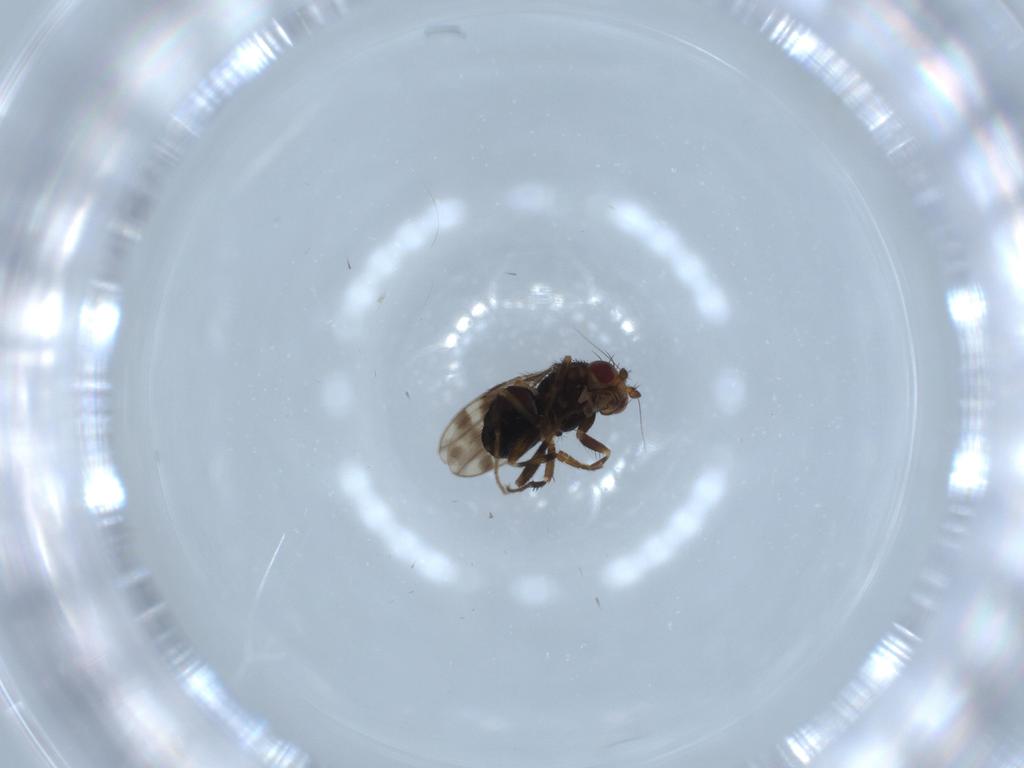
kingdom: Animalia
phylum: Arthropoda
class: Insecta
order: Diptera
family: Sphaeroceridae
